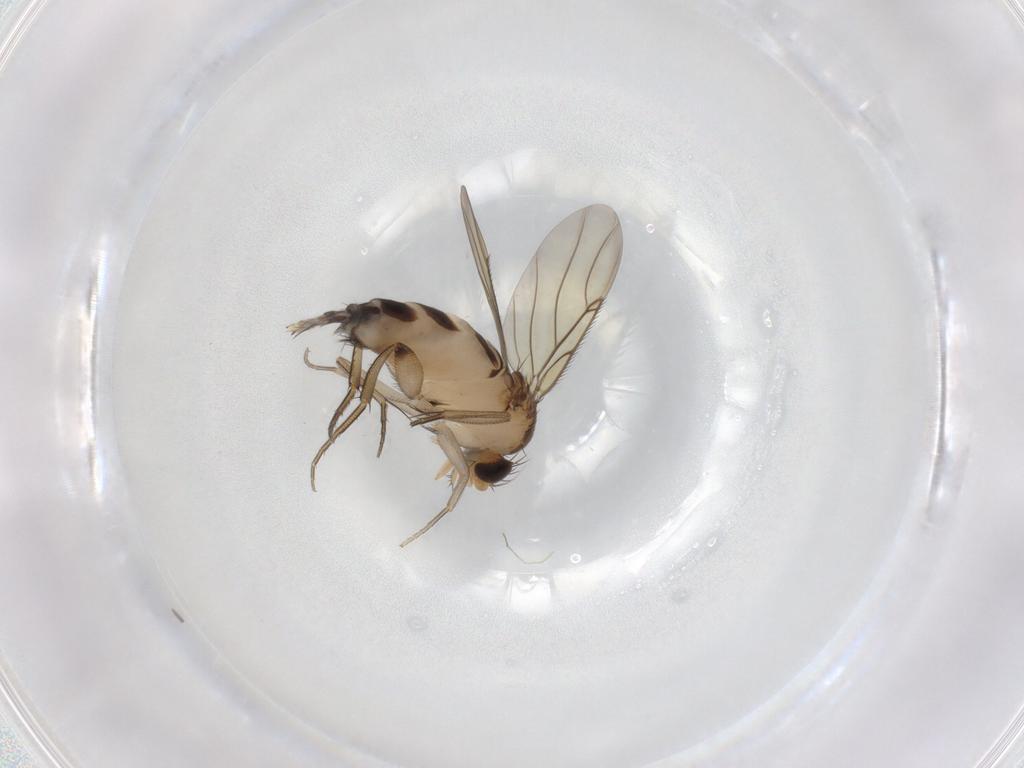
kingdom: Animalia
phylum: Arthropoda
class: Insecta
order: Diptera
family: Phoridae
